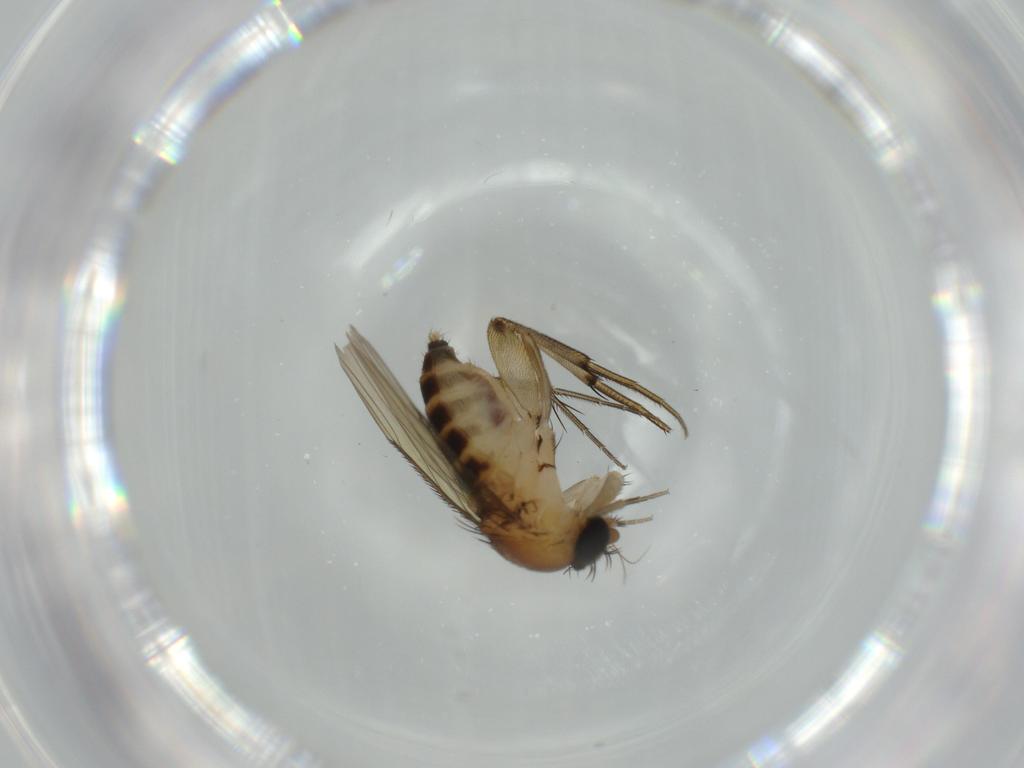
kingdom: Animalia
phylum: Arthropoda
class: Insecta
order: Diptera
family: Phoridae
